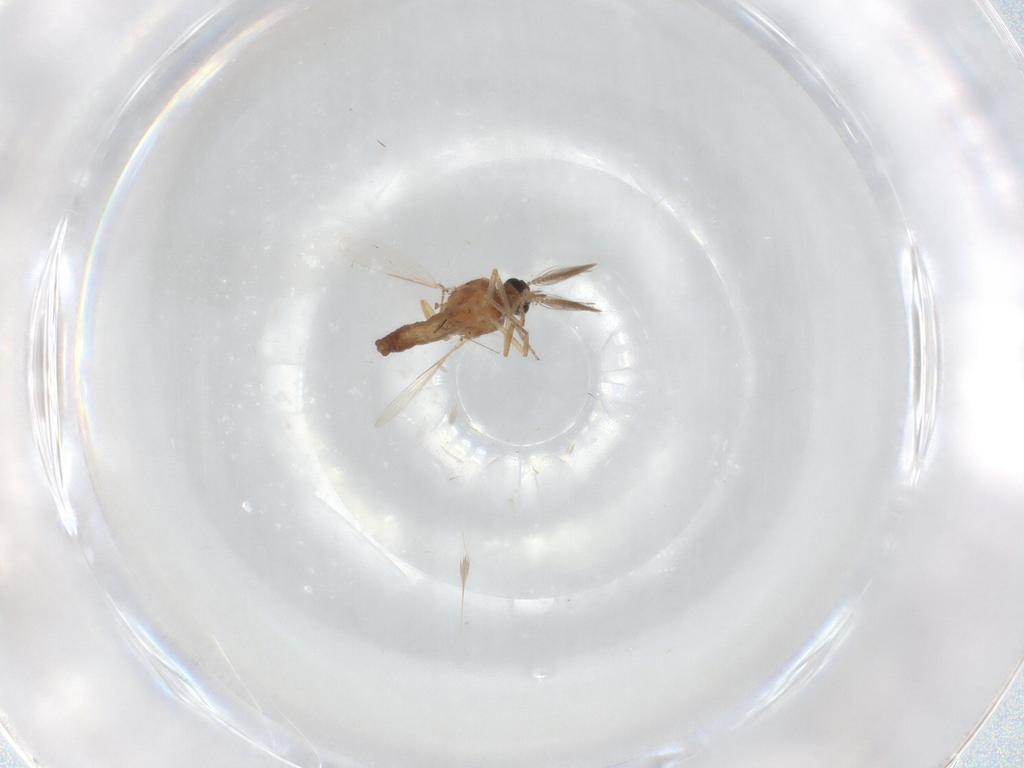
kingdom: Animalia
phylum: Arthropoda
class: Insecta
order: Diptera
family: Ceratopogonidae
